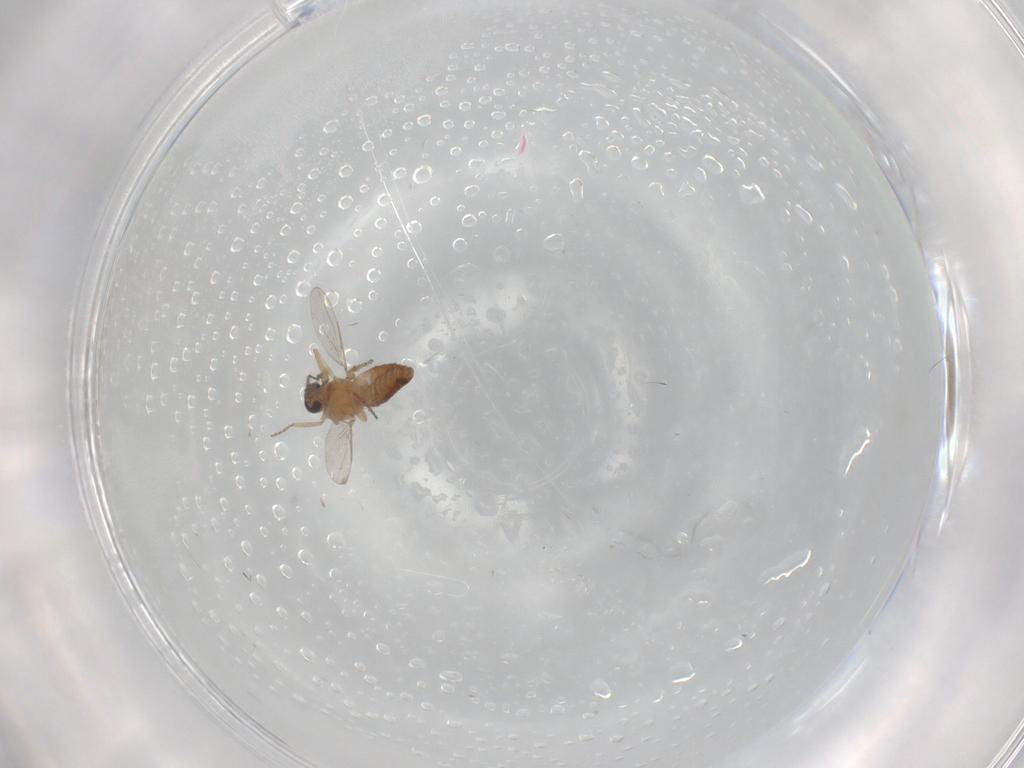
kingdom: Animalia
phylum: Arthropoda
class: Insecta
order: Diptera
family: Ceratopogonidae
